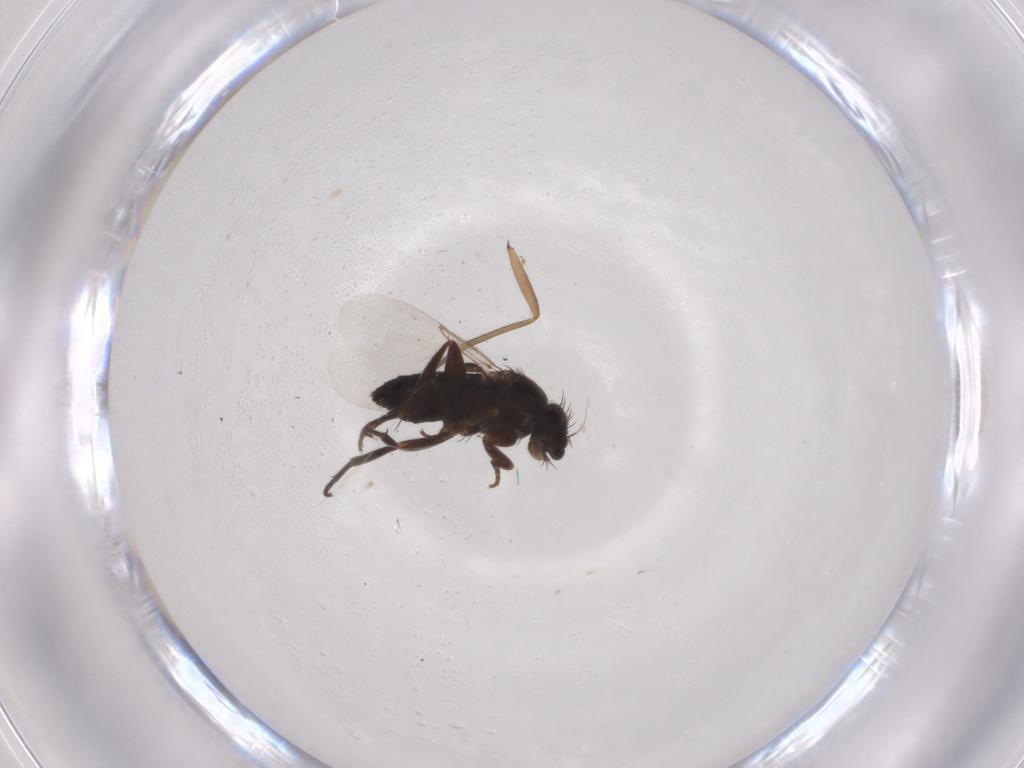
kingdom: Animalia
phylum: Arthropoda
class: Insecta
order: Diptera
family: Phoridae
